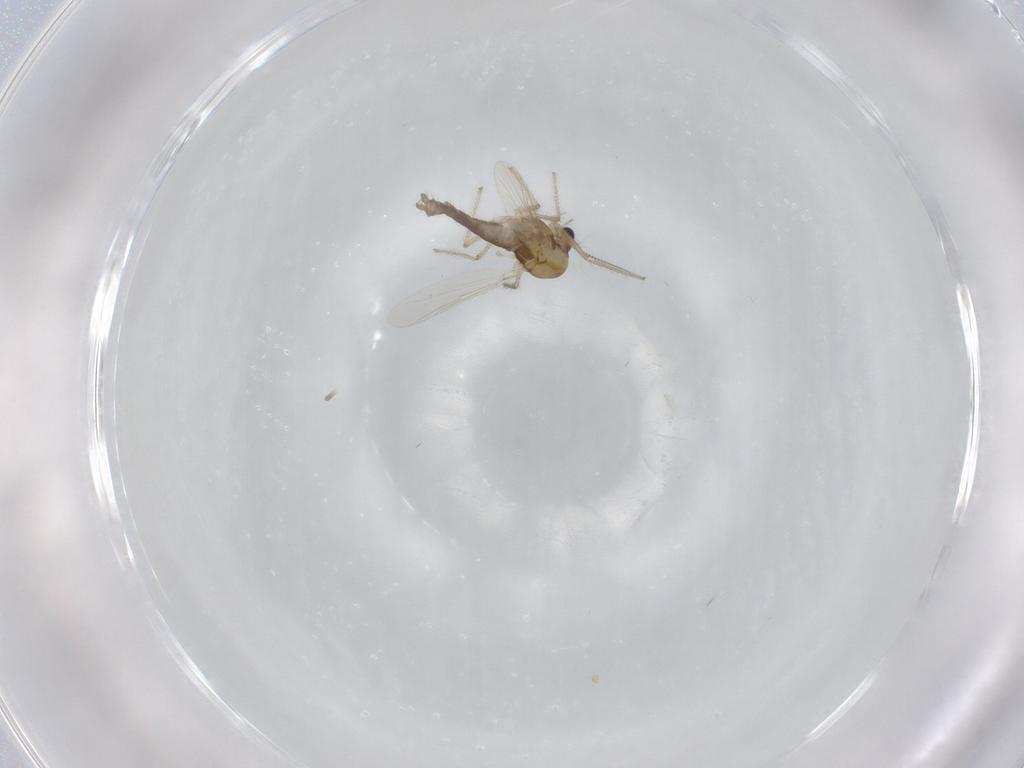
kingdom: Animalia
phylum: Arthropoda
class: Insecta
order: Diptera
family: Chironomidae
